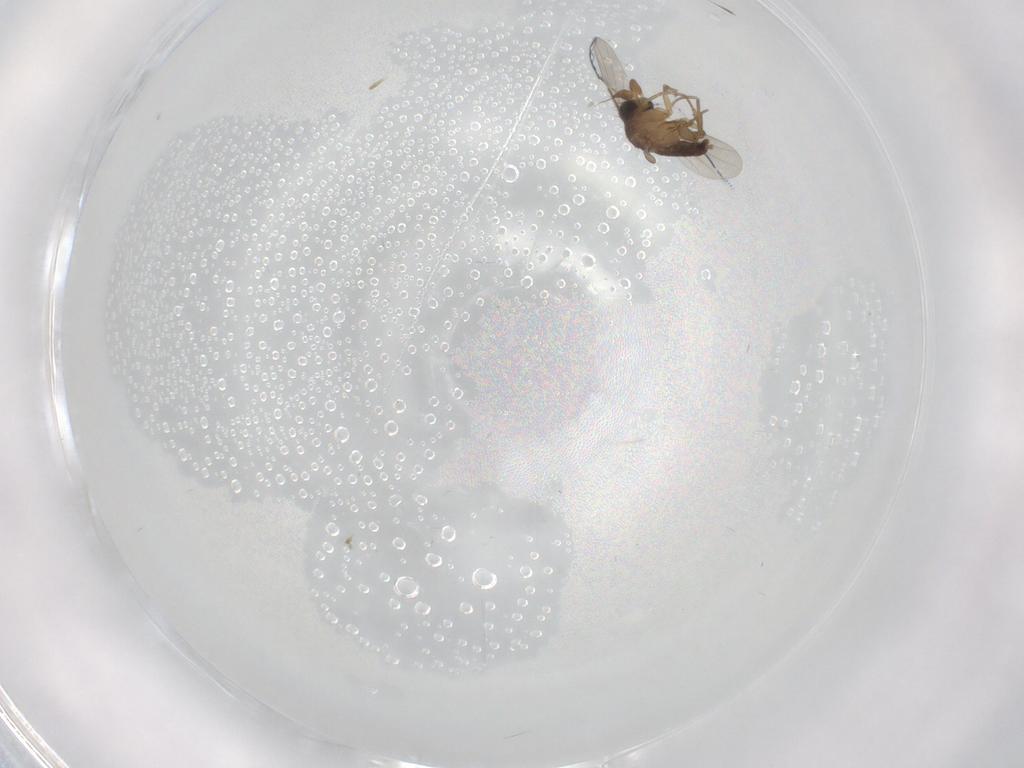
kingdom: Animalia
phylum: Arthropoda
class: Insecta
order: Diptera
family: Phoridae
